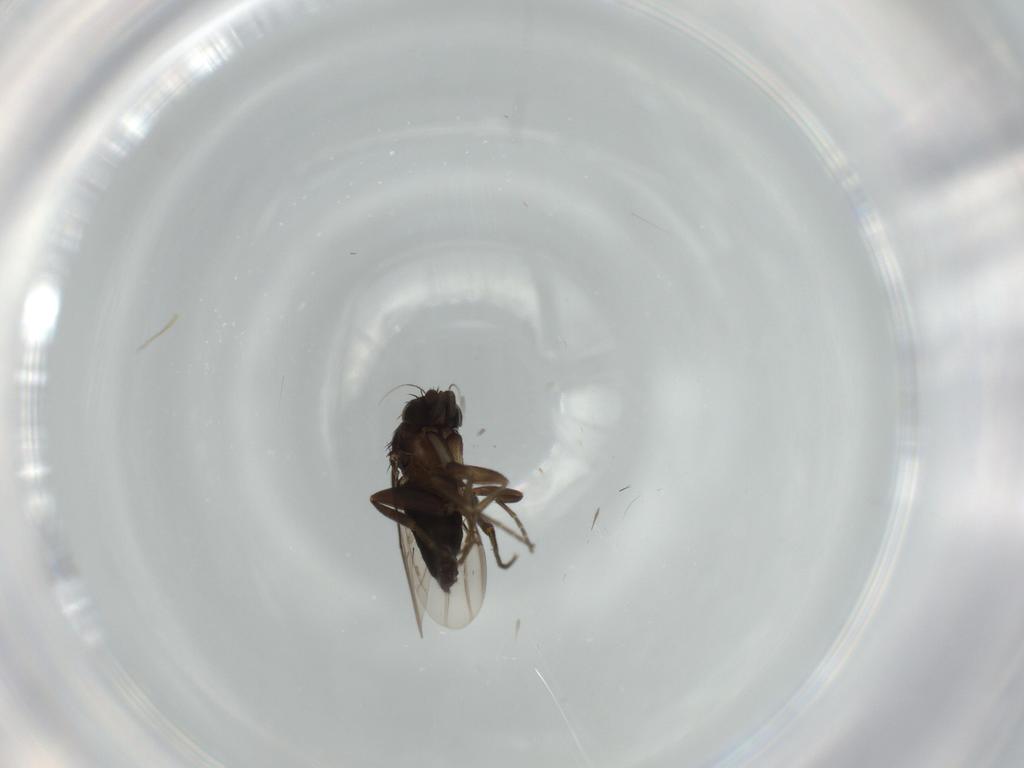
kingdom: Animalia
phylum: Arthropoda
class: Insecta
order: Diptera
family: Phoridae
